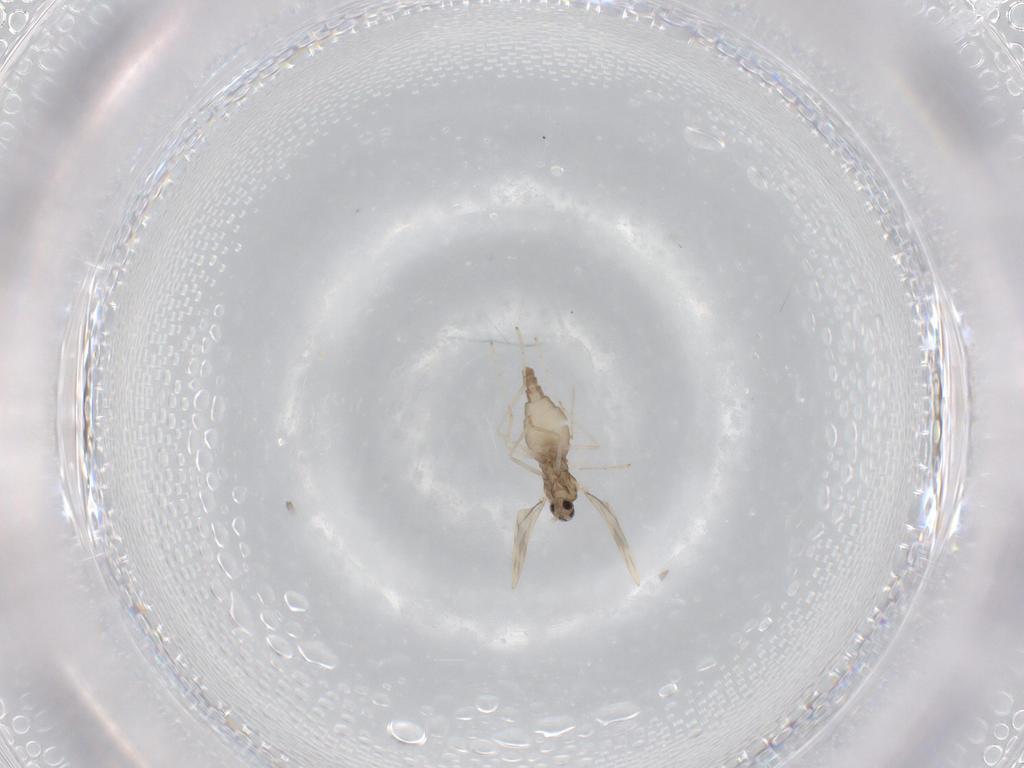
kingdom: Animalia
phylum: Arthropoda
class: Insecta
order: Diptera
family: Cecidomyiidae
